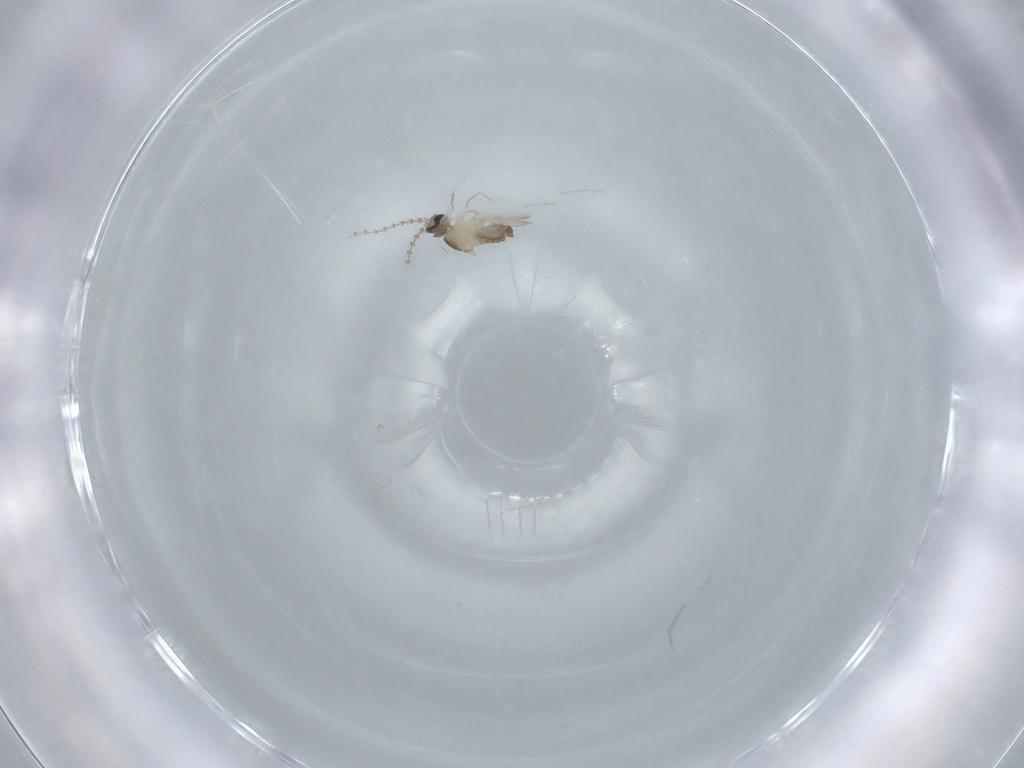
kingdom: Animalia
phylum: Arthropoda
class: Insecta
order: Diptera
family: Cecidomyiidae
